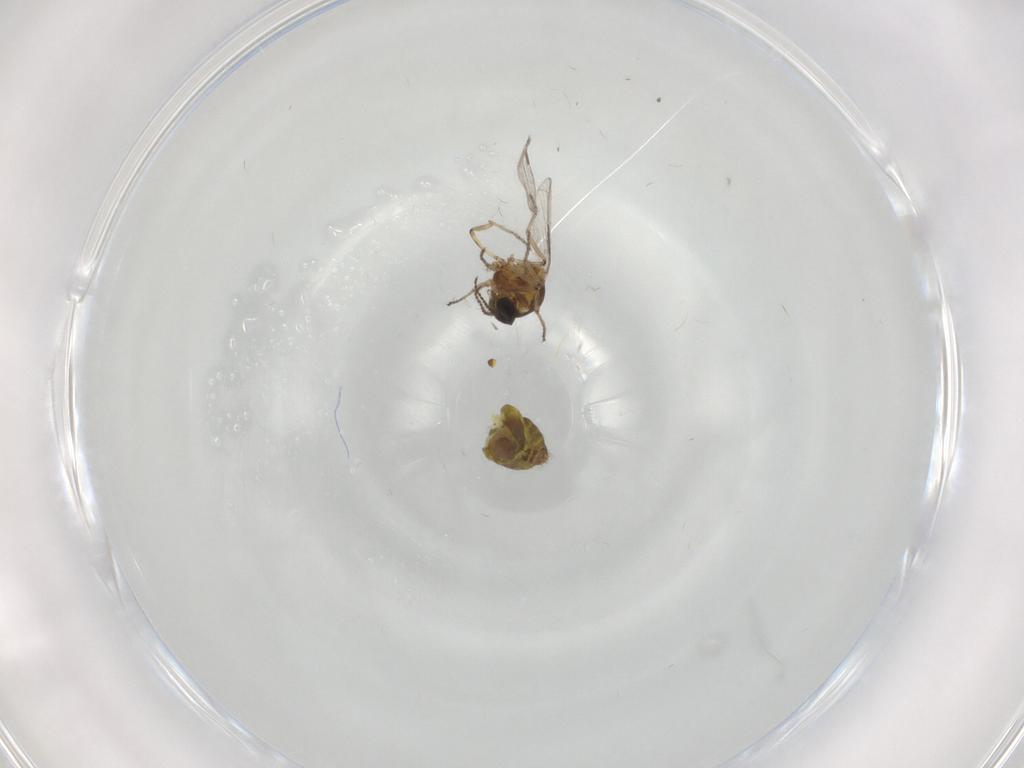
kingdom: Animalia
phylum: Arthropoda
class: Insecta
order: Diptera
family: Ceratopogonidae
